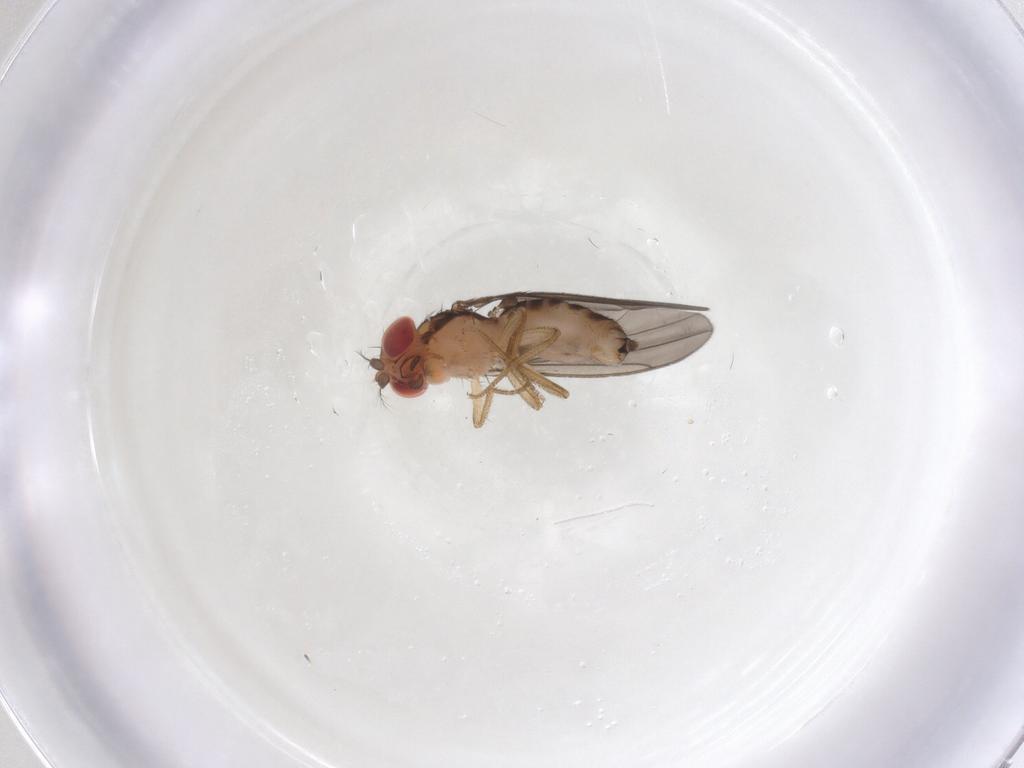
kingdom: Animalia
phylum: Arthropoda
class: Insecta
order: Diptera
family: Drosophilidae
